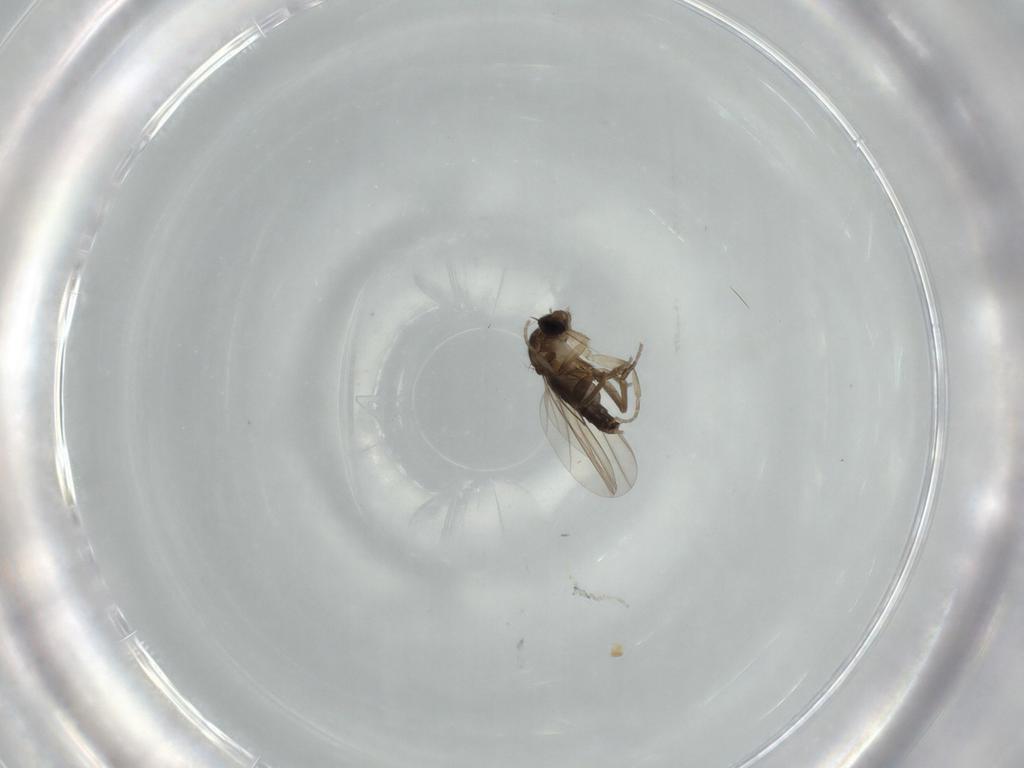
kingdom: Animalia
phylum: Arthropoda
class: Insecta
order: Diptera
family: Phoridae
